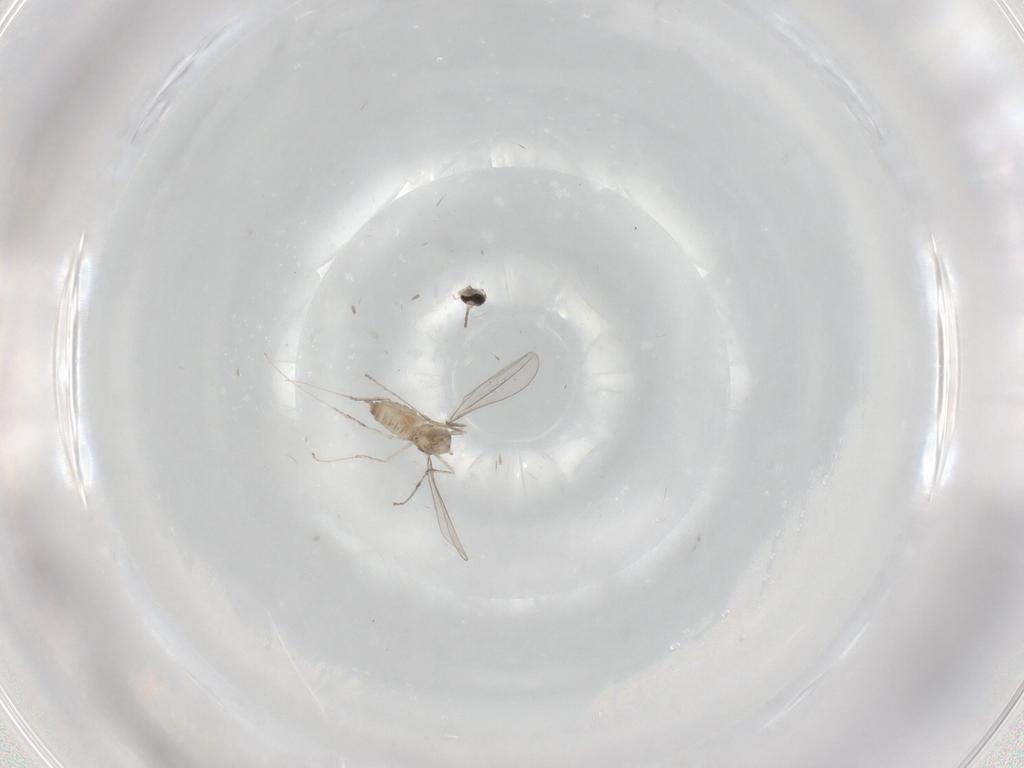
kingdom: Animalia
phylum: Arthropoda
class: Insecta
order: Diptera
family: Cecidomyiidae
